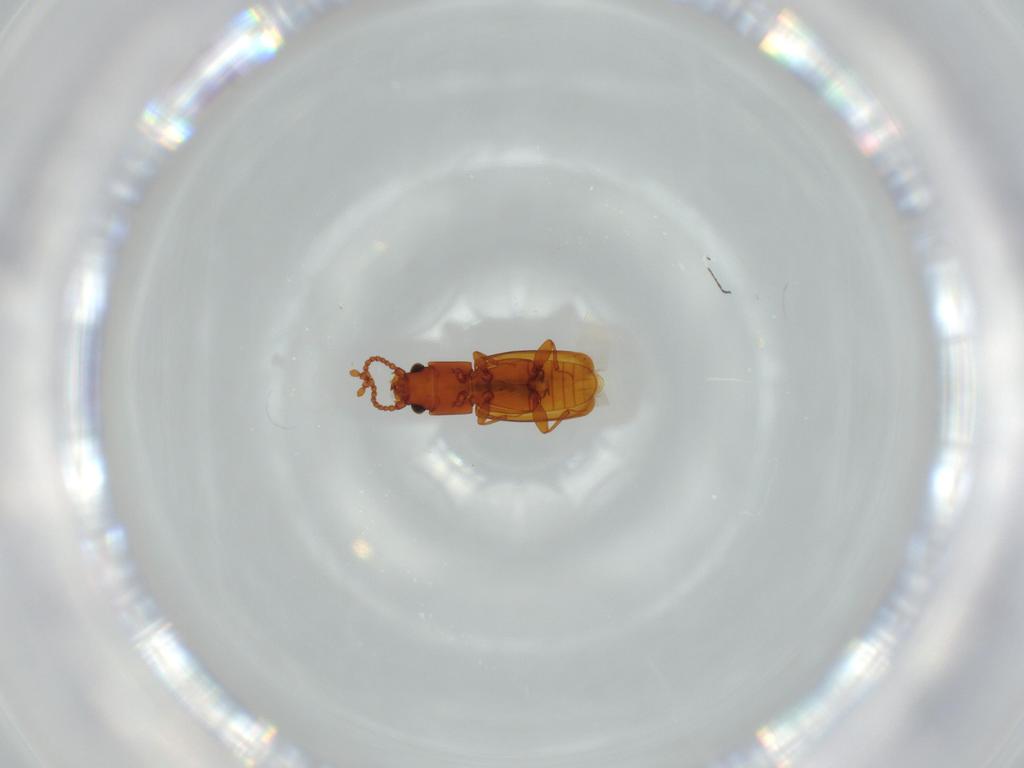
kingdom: Animalia
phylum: Arthropoda
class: Insecta
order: Coleoptera
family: Laemophloeidae
